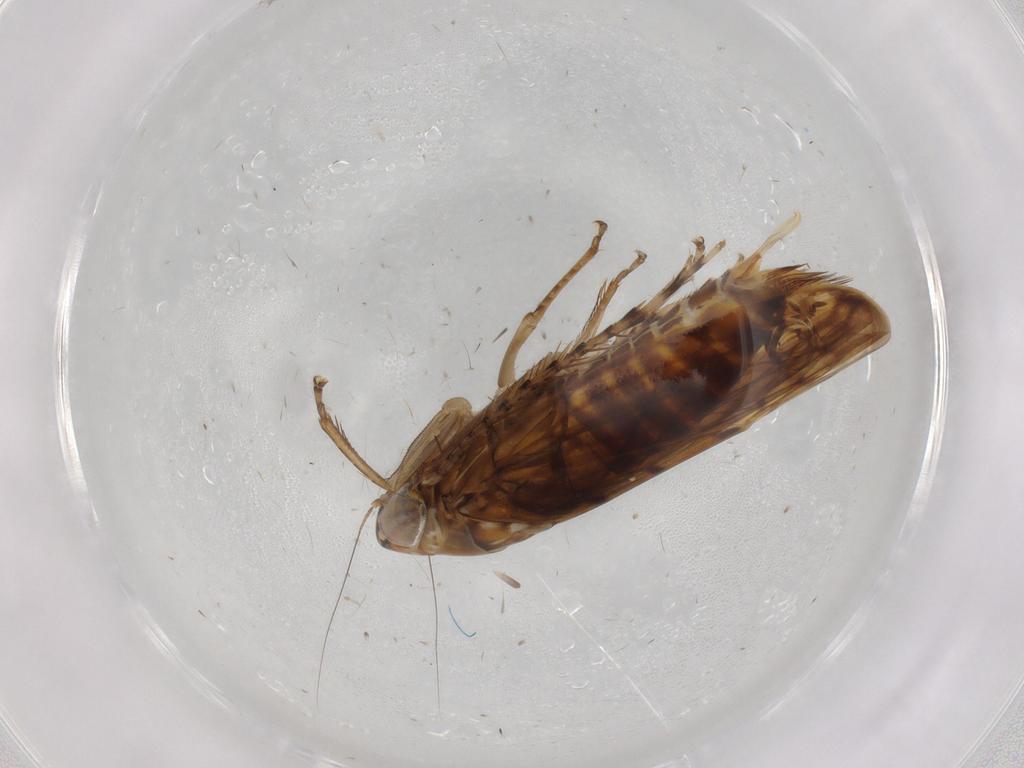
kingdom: Animalia
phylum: Arthropoda
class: Insecta
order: Hemiptera
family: Cicadellidae
